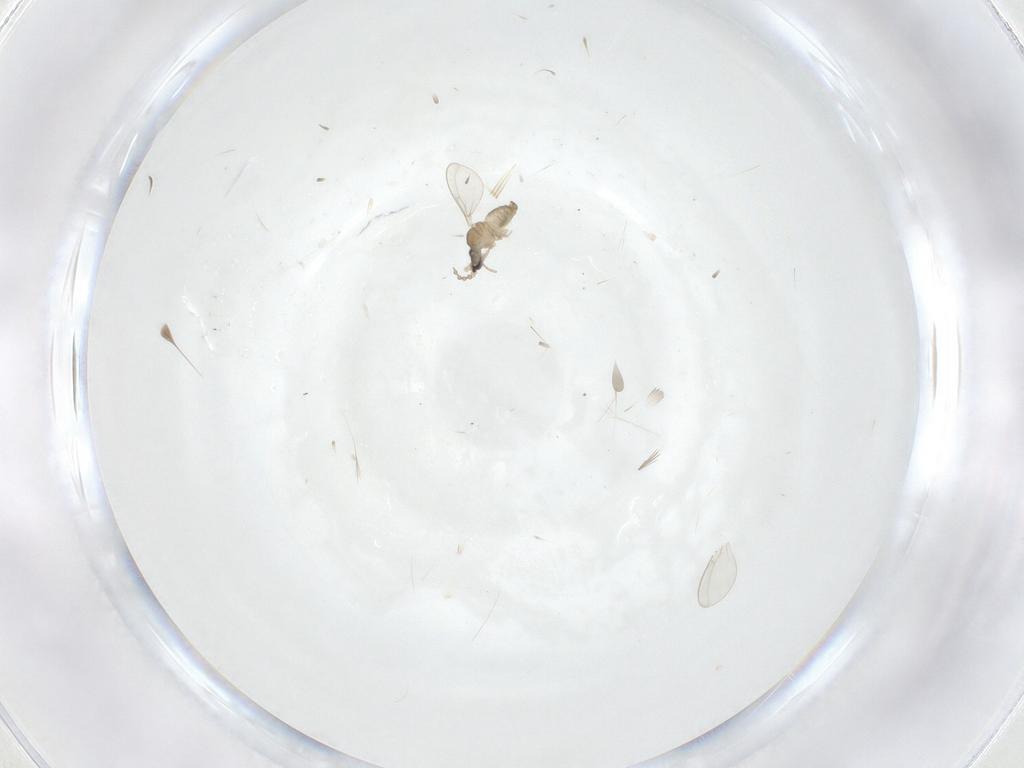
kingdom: Animalia
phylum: Arthropoda
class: Insecta
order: Diptera
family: Cecidomyiidae
